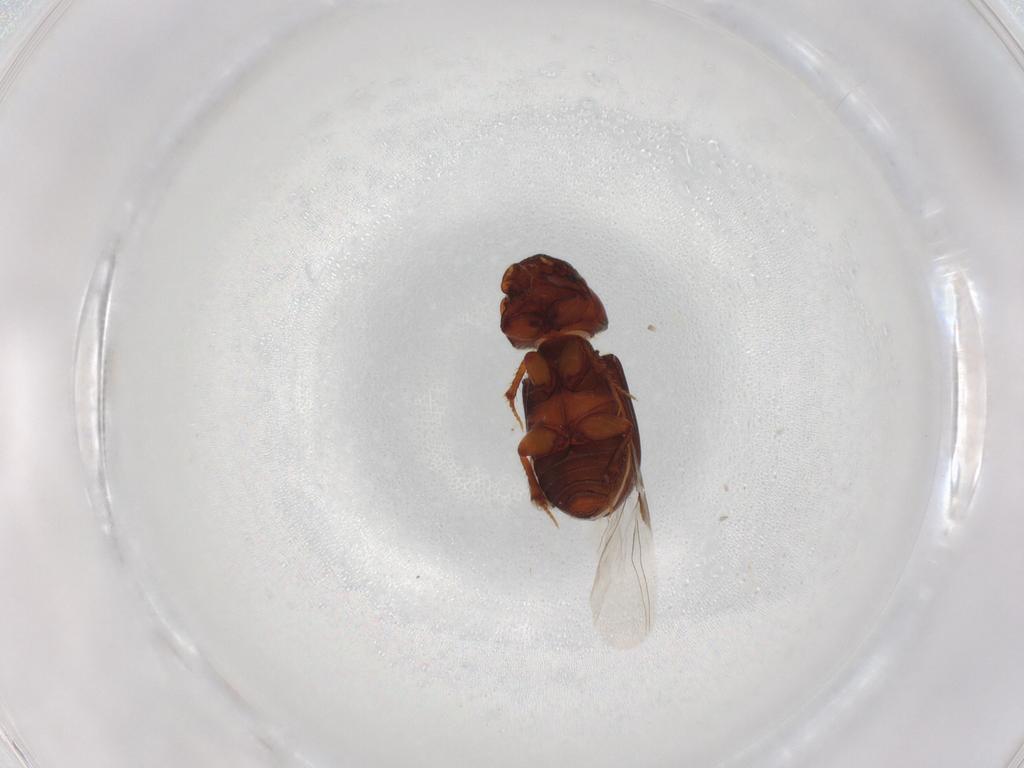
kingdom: Animalia
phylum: Arthropoda
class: Insecta
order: Coleoptera
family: Scarabaeidae
